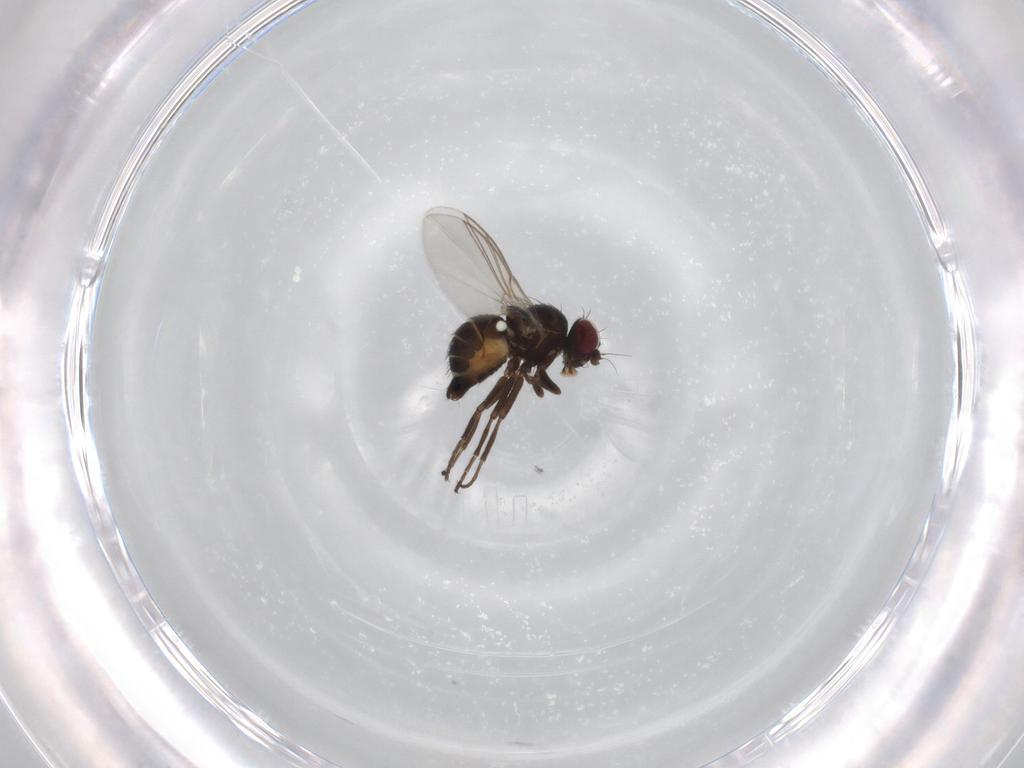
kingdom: Animalia
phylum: Arthropoda
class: Insecta
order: Diptera
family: Agromyzidae
